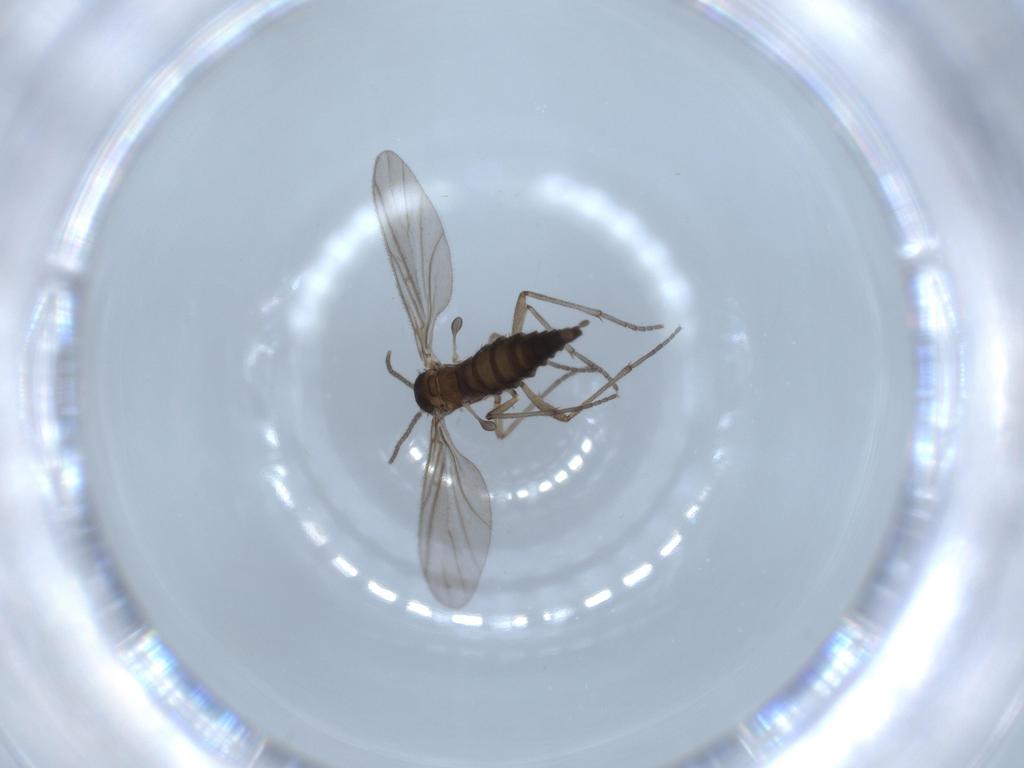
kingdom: Animalia
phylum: Arthropoda
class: Insecta
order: Diptera
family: Sciaridae
